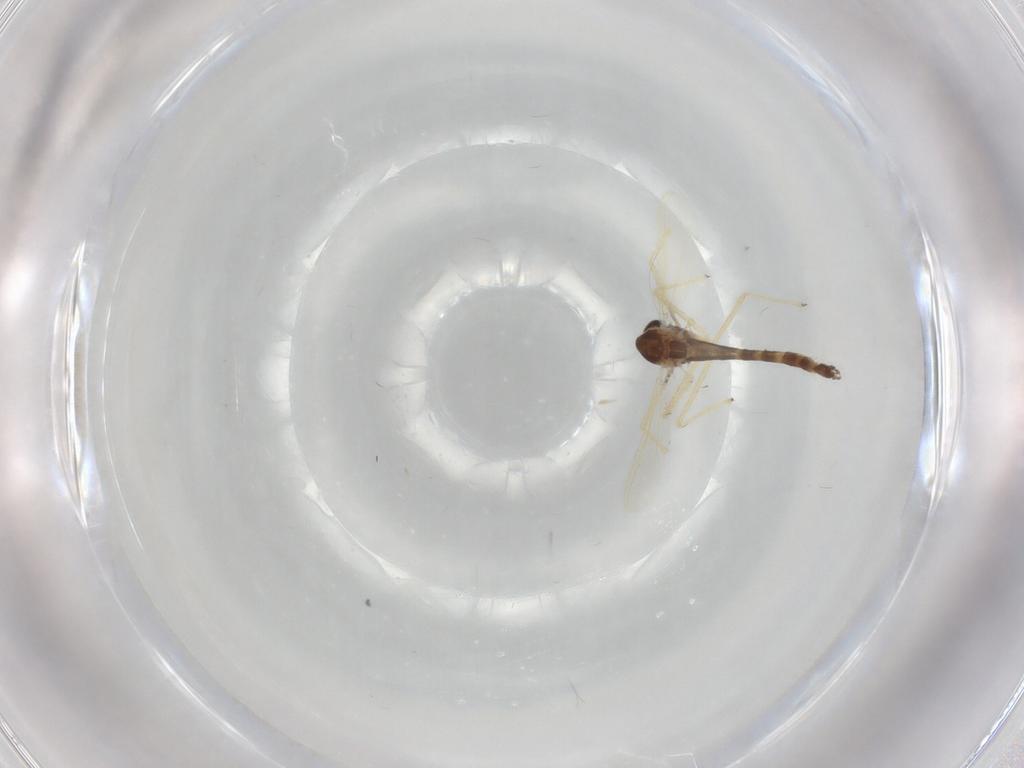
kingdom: Animalia
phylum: Arthropoda
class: Insecta
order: Diptera
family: Chironomidae
